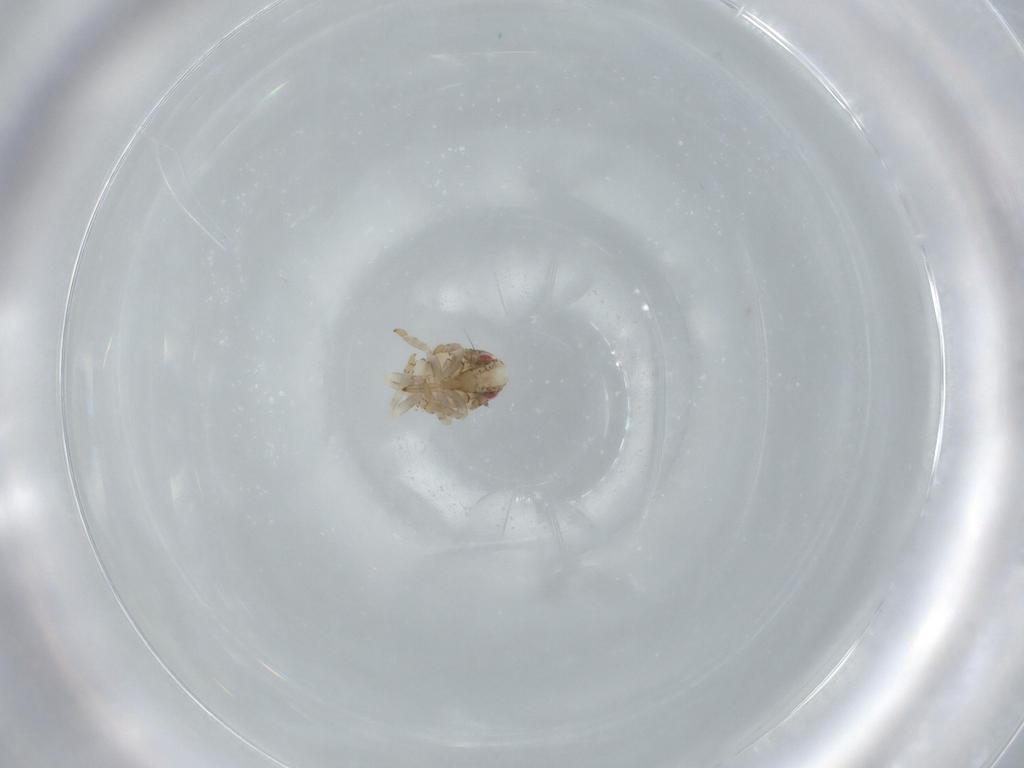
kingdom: Animalia
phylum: Arthropoda
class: Insecta
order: Hemiptera
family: Acanaloniidae
